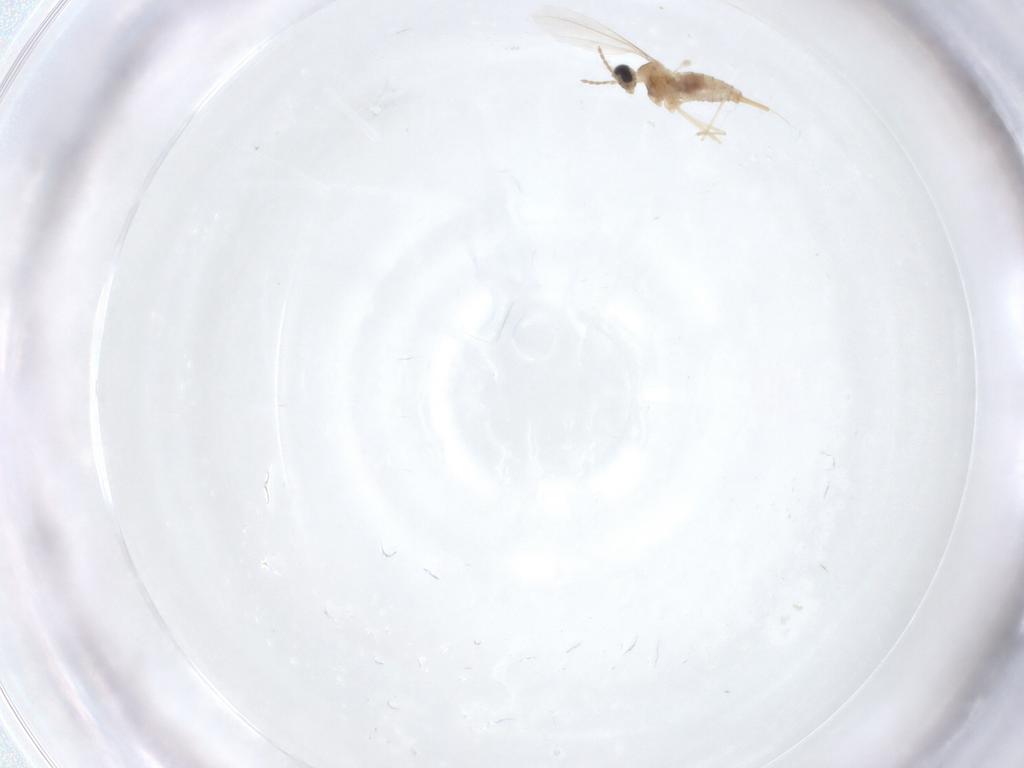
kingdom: Animalia
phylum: Arthropoda
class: Insecta
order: Diptera
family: Cecidomyiidae
